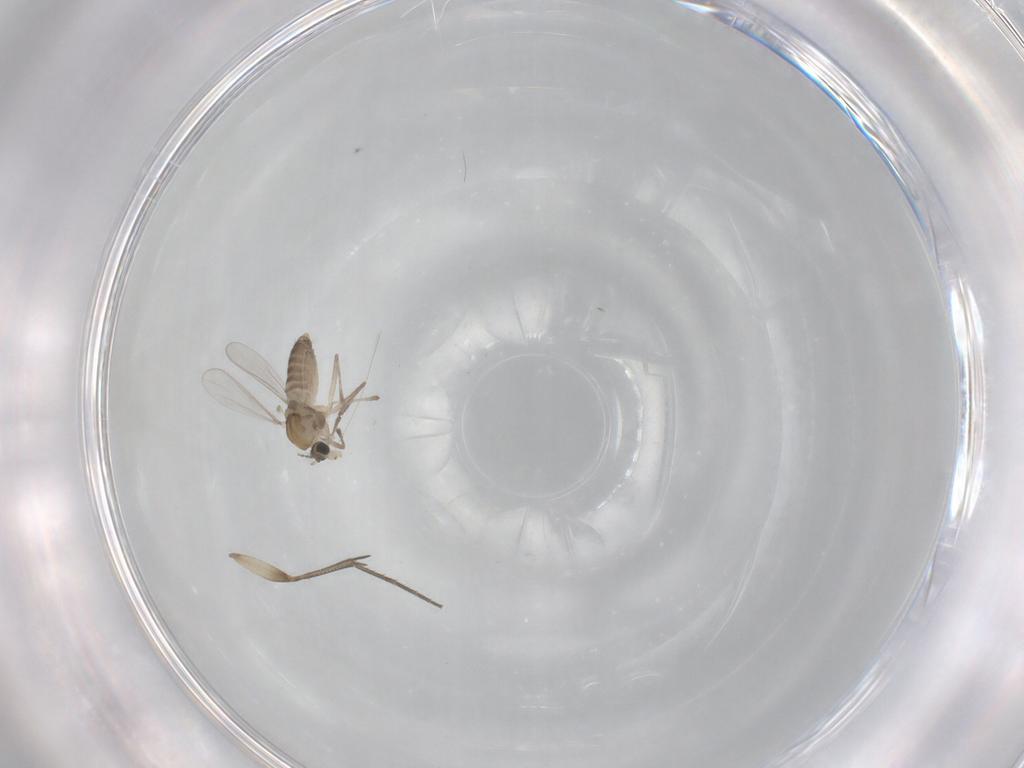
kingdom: Animalia
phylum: Arthropoda
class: Insecta
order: Diptera
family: Chironomidae
